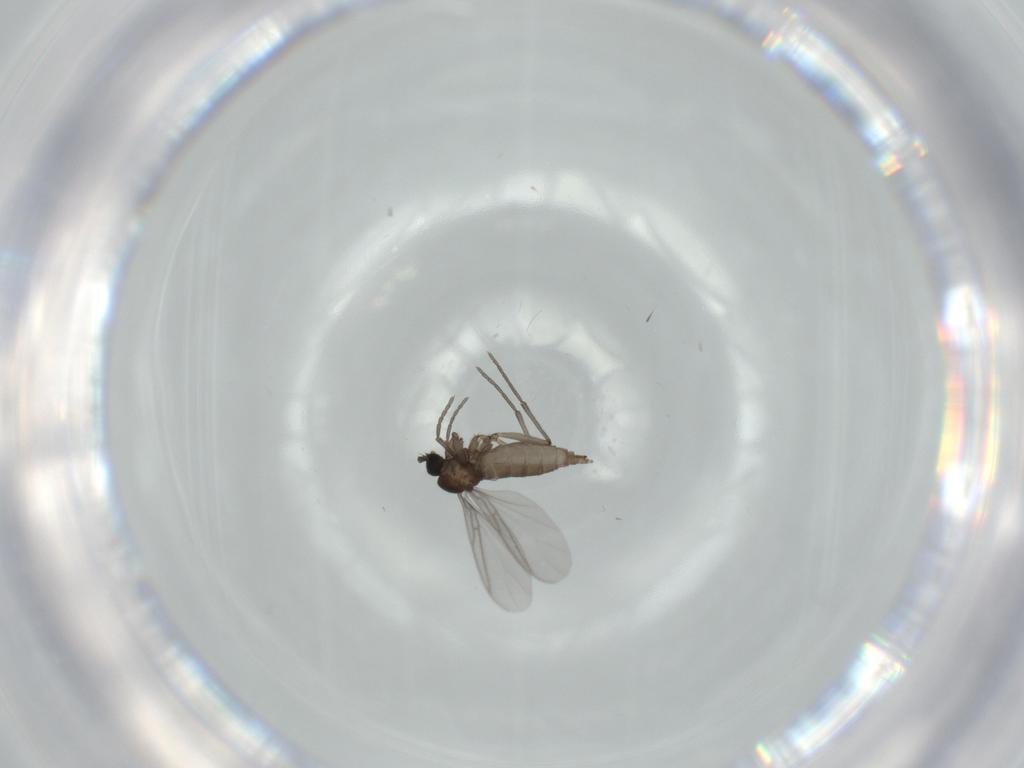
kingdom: Animalia
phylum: Arthropoda
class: Insecta
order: Diptera
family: Sciaridae
